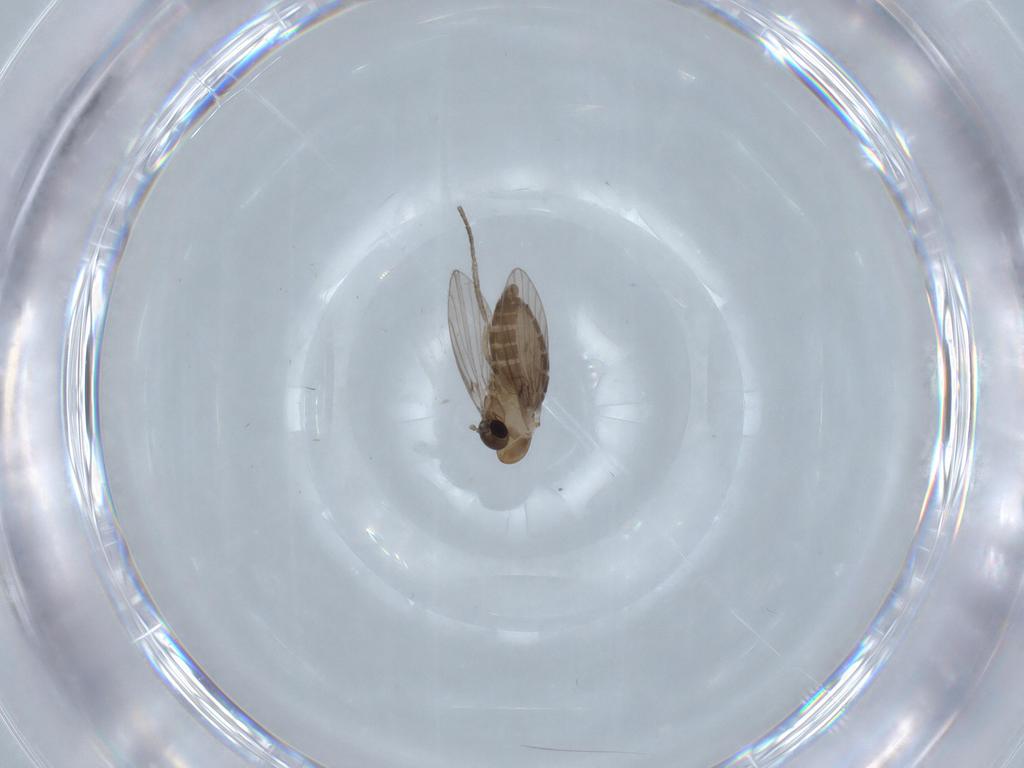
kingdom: Animalia
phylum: Arthropoda
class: Insecta
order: Diptera
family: Psychodidae
